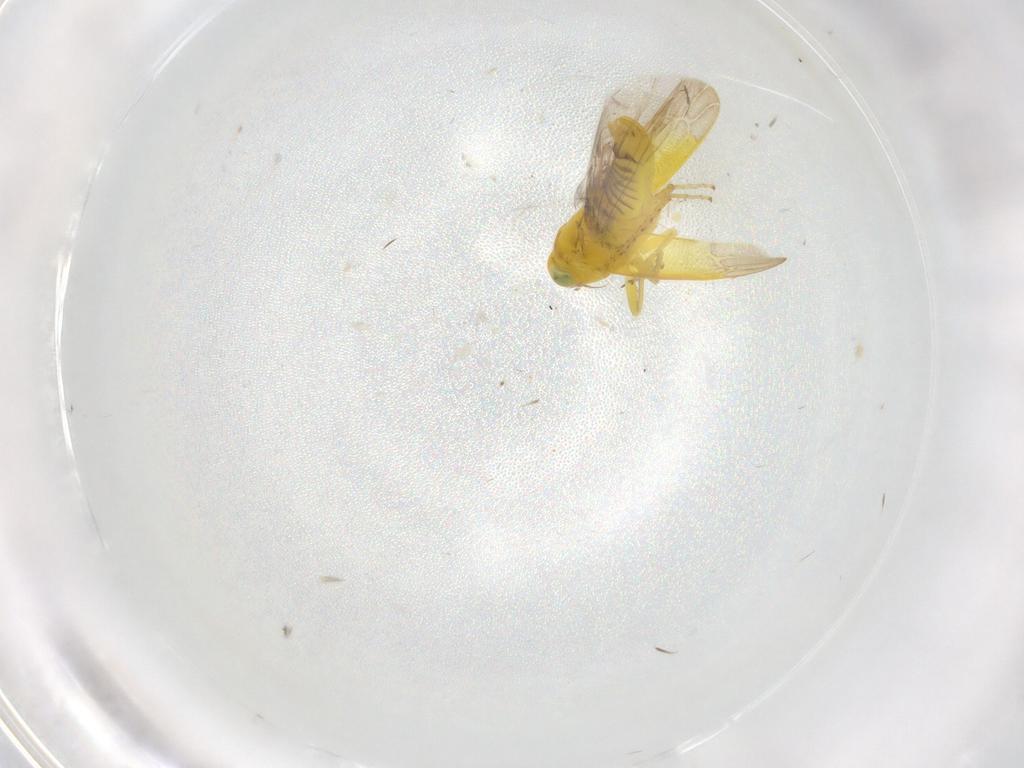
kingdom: Animalia
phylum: Arthropoda
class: Insecta
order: Hemiptera
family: Cicadellidae
